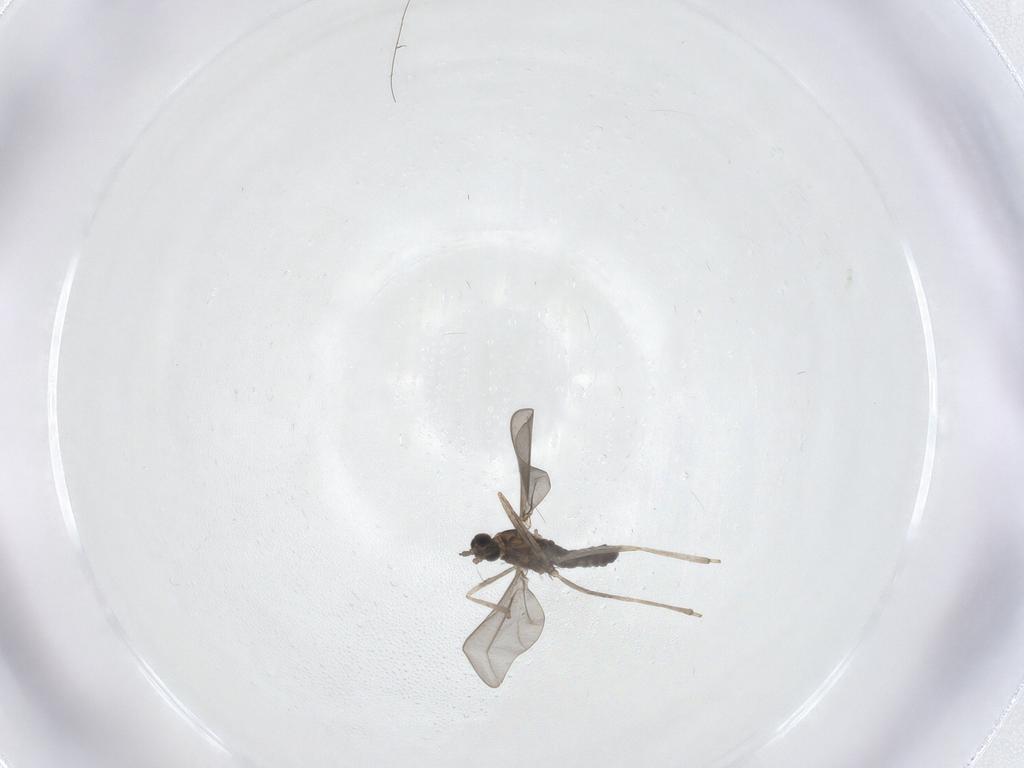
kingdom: Animalia
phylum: Arthropoda
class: Insecta
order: Diptera
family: Cecidomyiidae
